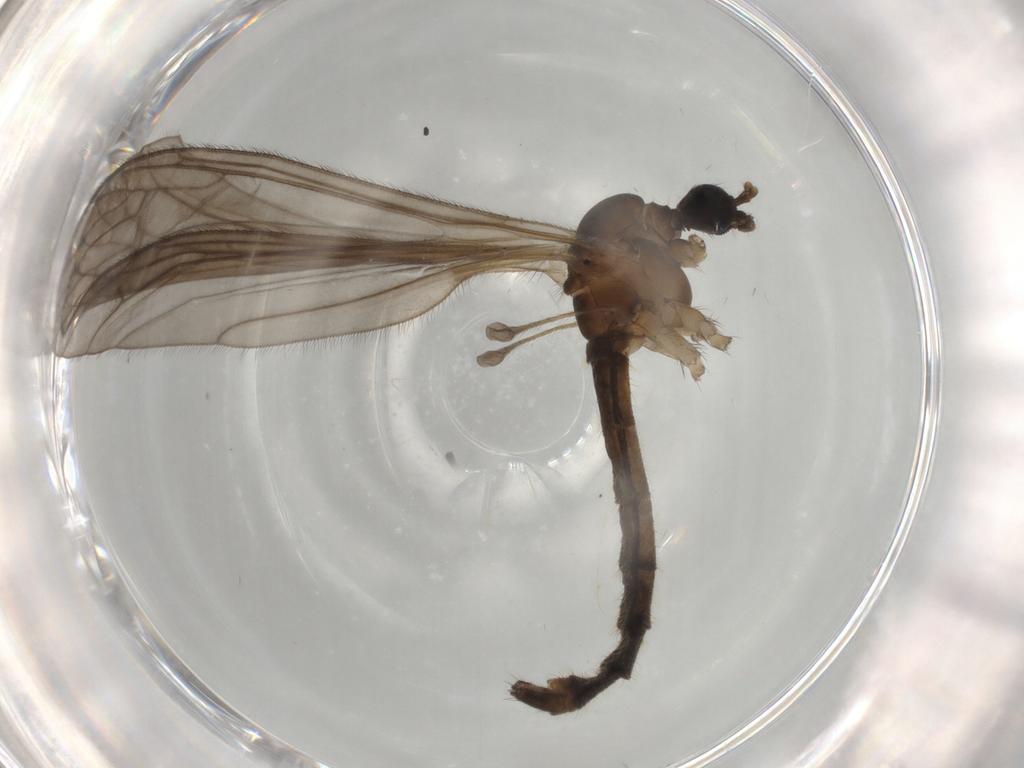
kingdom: Animalia
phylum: Arthropoda
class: Insecta
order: Diptera
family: Limoniidae
